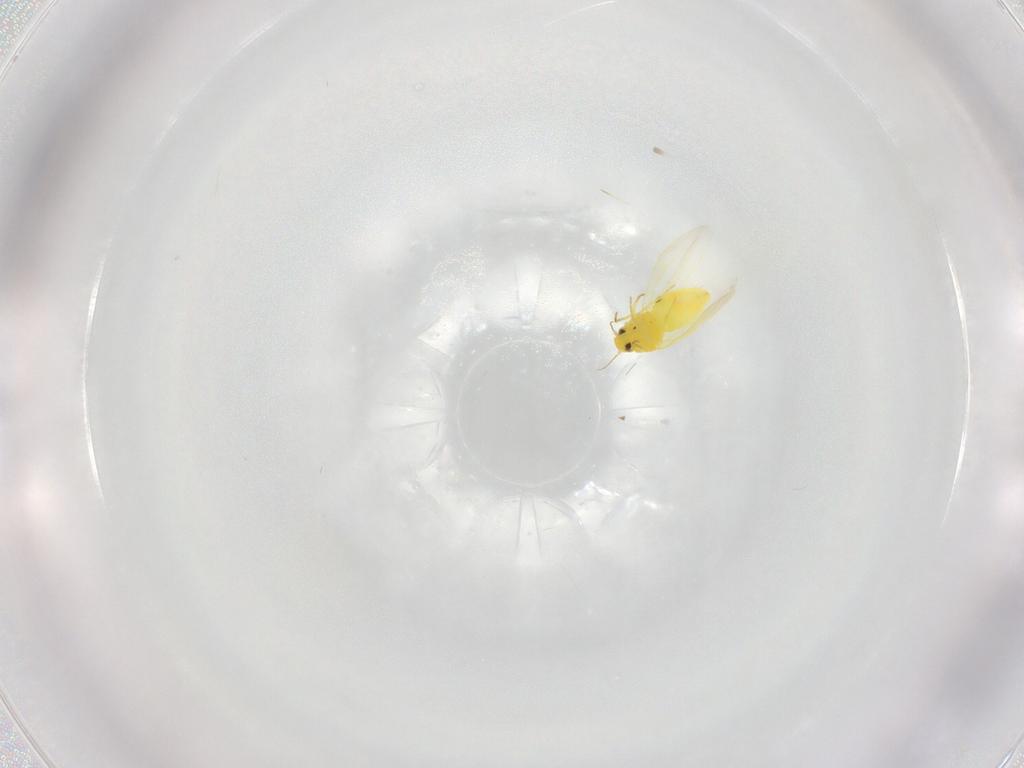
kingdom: Animalia
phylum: Arthropoda
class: Insecta
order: Hemiptera
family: Aleyrodidae
